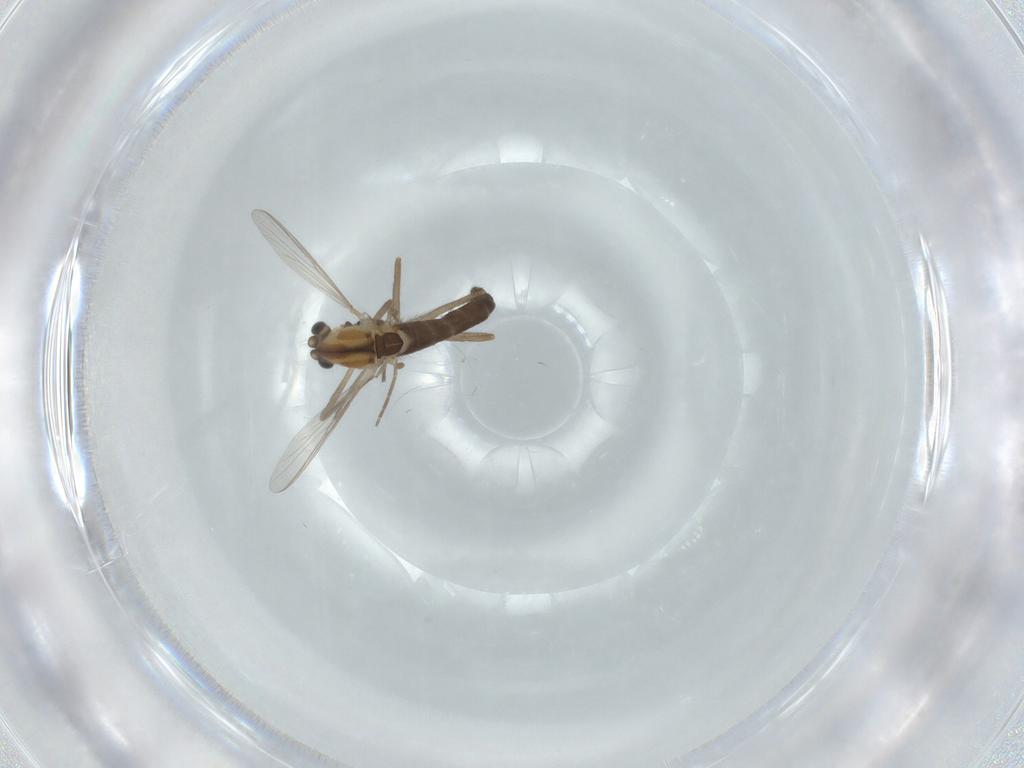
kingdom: Animalia
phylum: Arthropoda
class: Insecta
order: Diptera
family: Chironomidae
